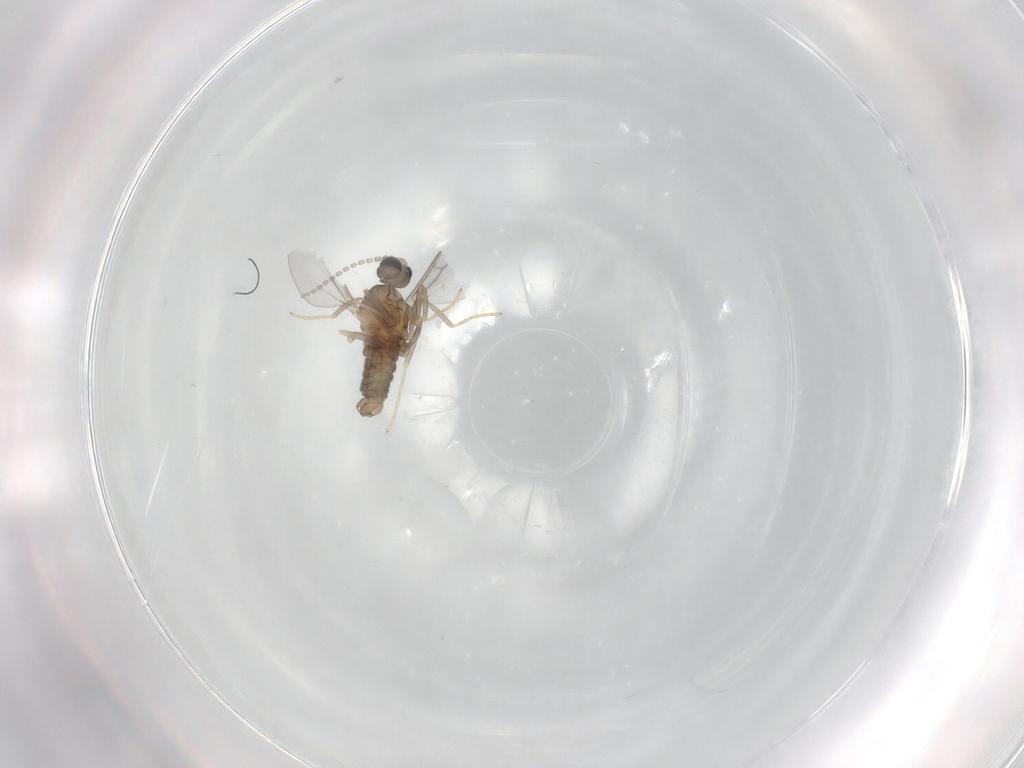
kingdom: Animalia
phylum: Arthropoda
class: Insecta
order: Diptera
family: Cecidomyiidae
